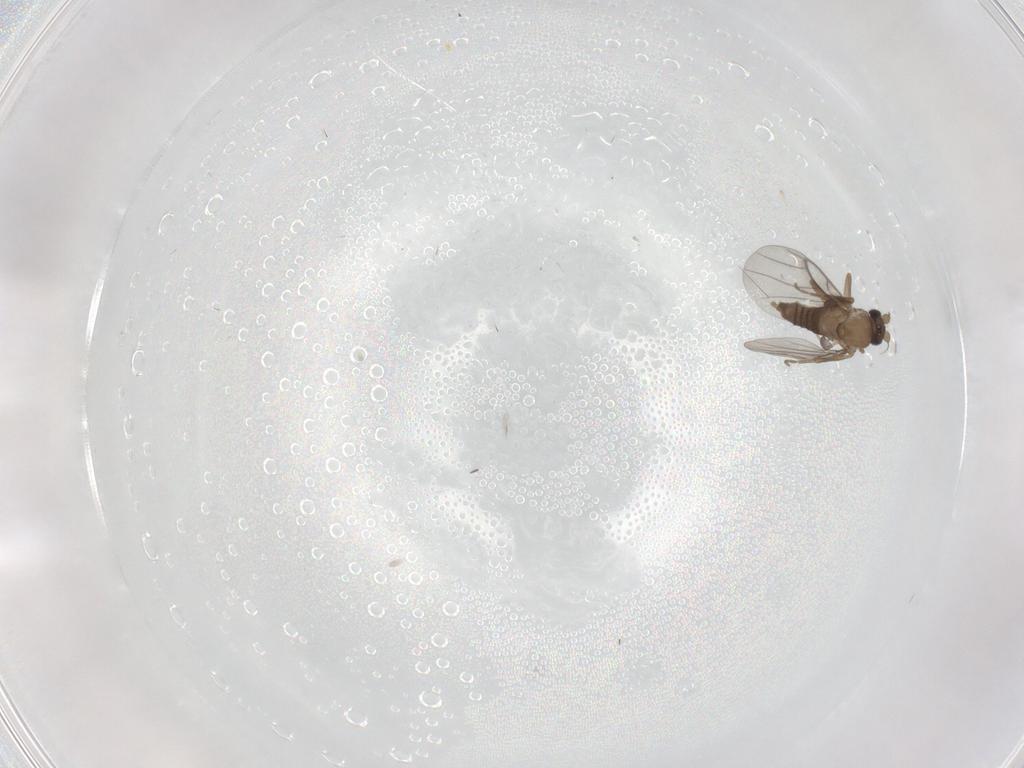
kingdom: Animalia
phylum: Arthropoda
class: Insecta
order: Diptera
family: Chironomidae
